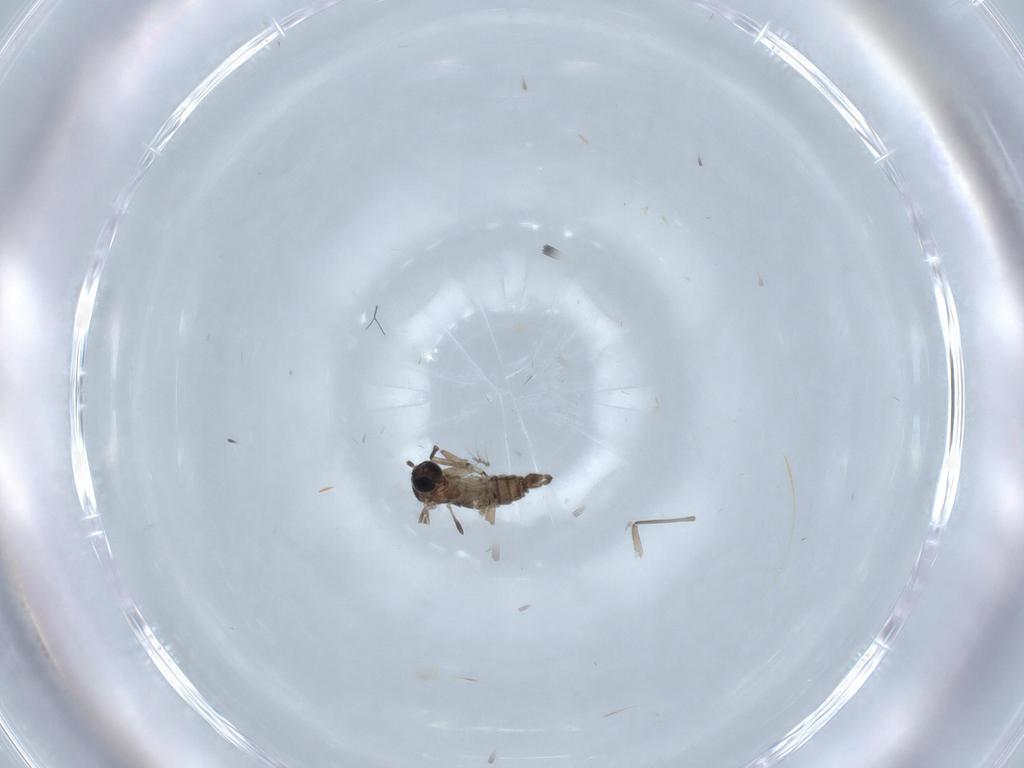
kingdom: Animalia
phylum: Arthropoda
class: Insecta
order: Diptera
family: Sciaridae
